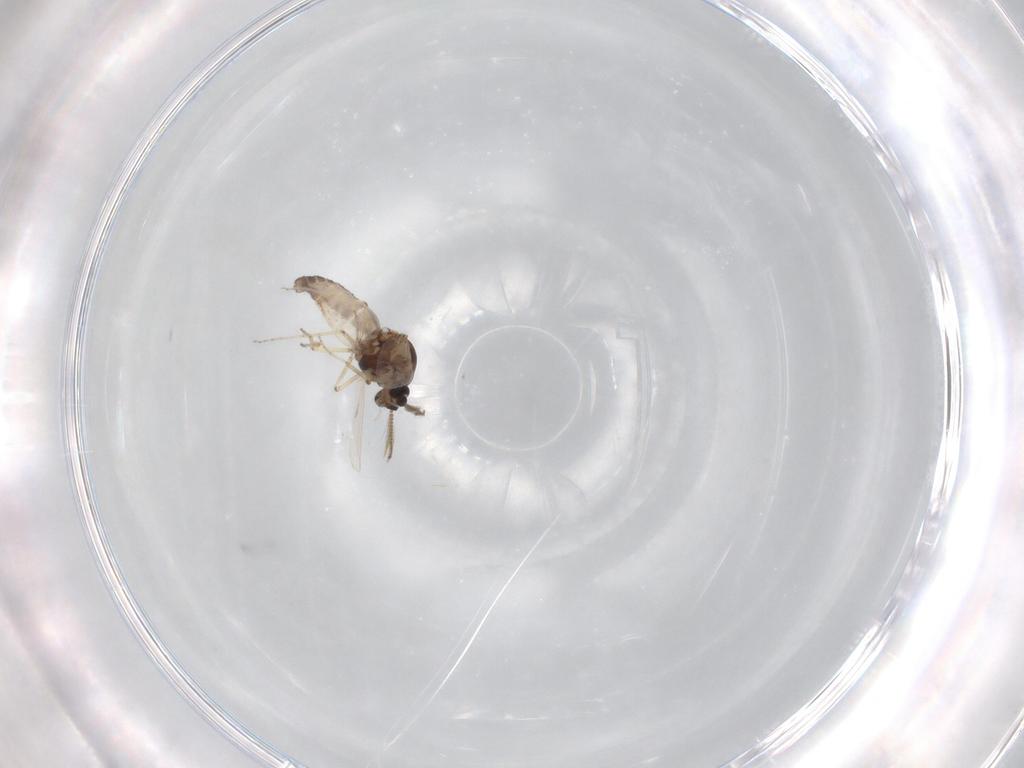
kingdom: Animalia
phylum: Arthropoda
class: Insecta
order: Diptera
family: Ceratopogonidae
